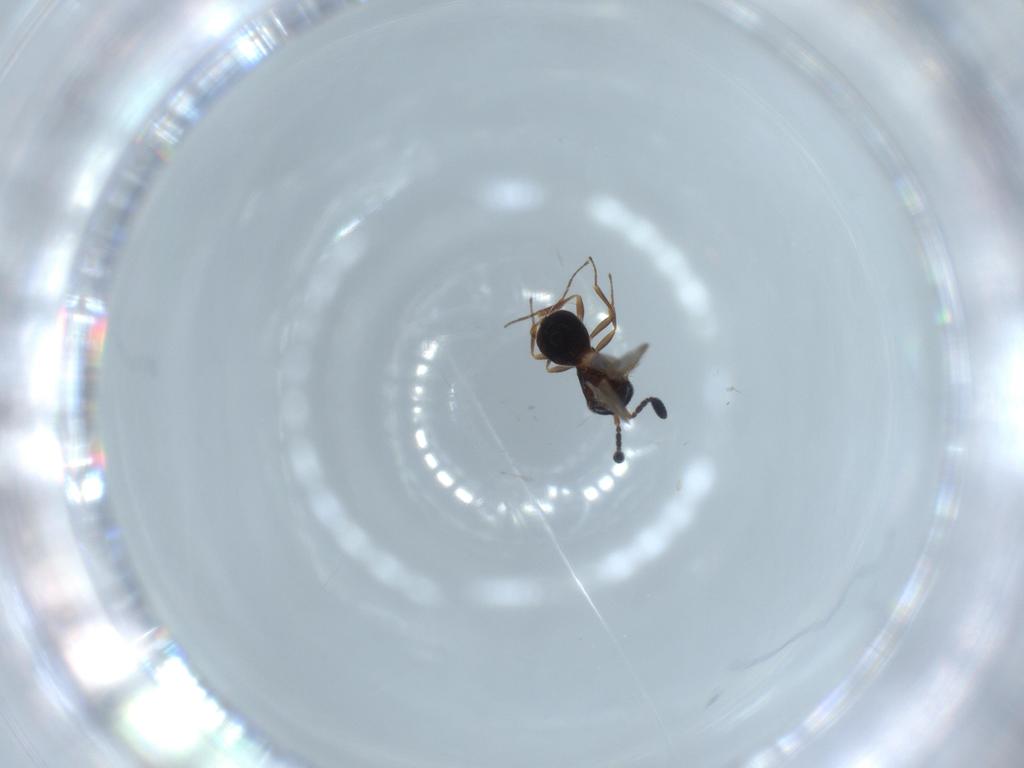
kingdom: Animalia
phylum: Arthropoda
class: Insecta
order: Hymenoptera
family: Scelionidae
